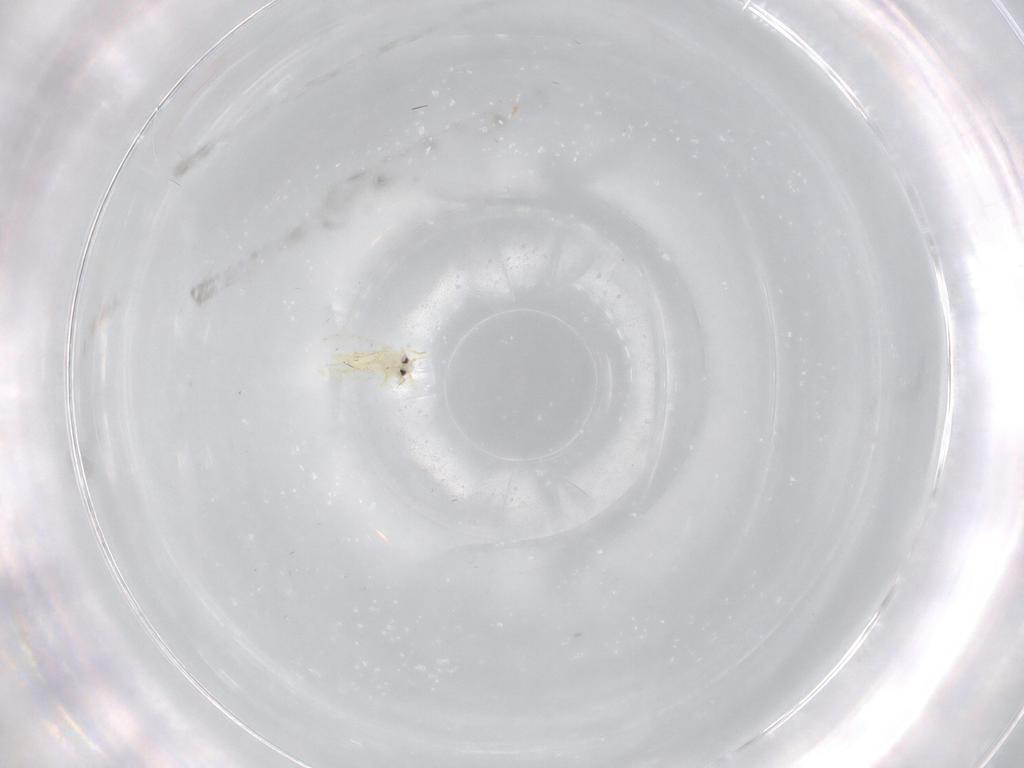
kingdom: Animalia
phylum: Arthropoda
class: Insecta
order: Hemiptera
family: Aleyrodidae
